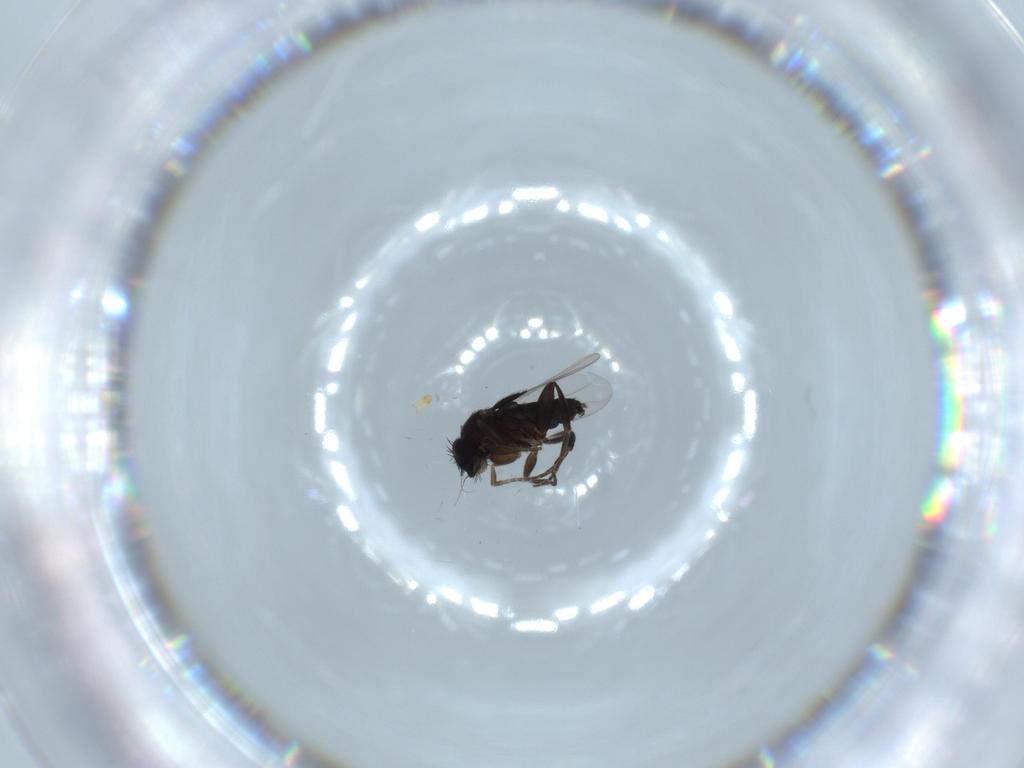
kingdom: Animalia
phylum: Arthropoda
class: Insecta
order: Diptera
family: Phoridae
